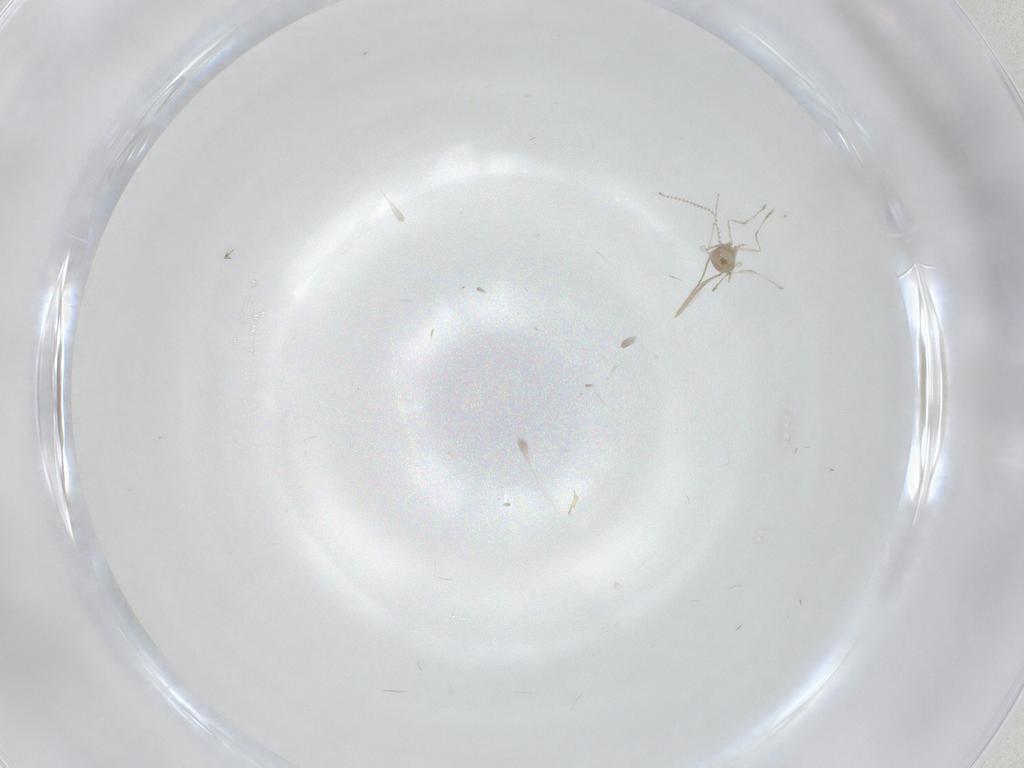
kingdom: Animalia
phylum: Arthropoda
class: Insecta
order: Diptera
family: Cecidomyiidae
